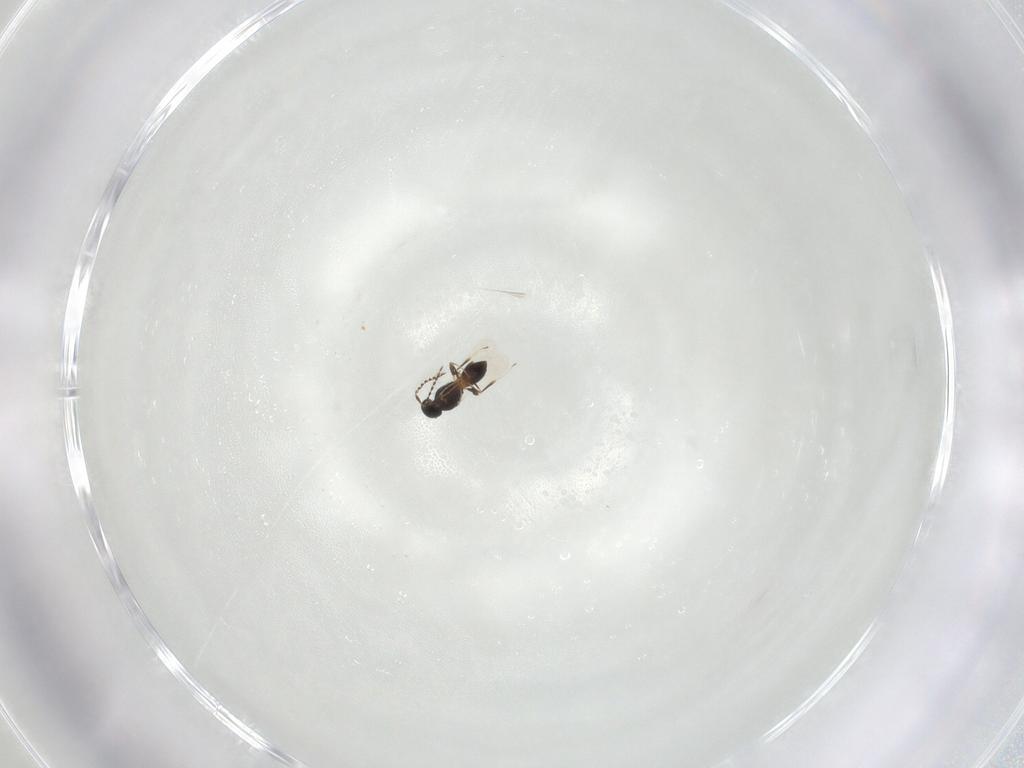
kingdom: Animalia
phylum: Arthropoda
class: Insecta
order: Hymenoptera
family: Platygastridae
